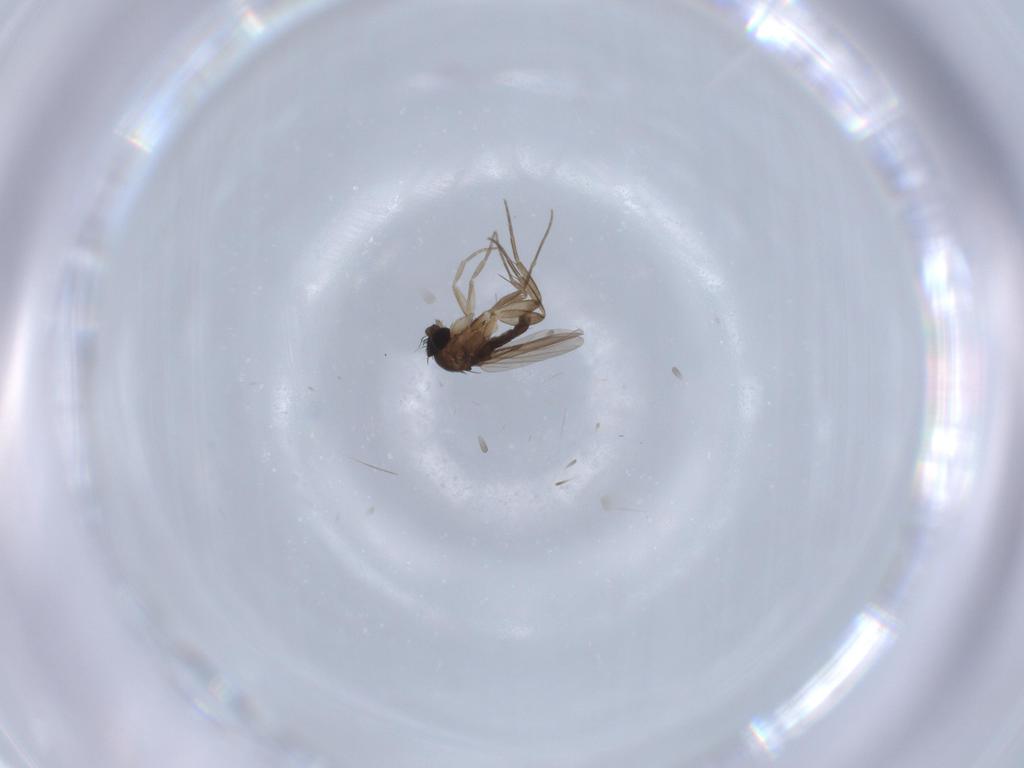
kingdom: Animalia
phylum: Arthropoda
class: Insecta
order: Diptera
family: Phoridae
